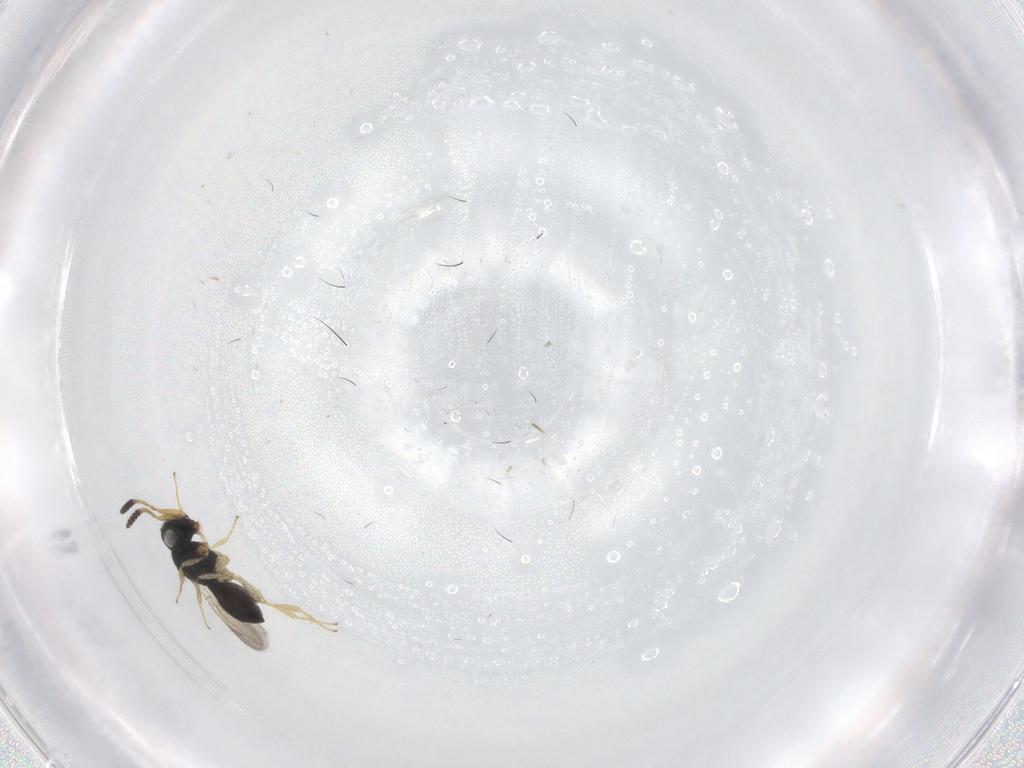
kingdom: Animalia
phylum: Arthropoda
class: Insecta
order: Hymenoptera
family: Scelionidae
